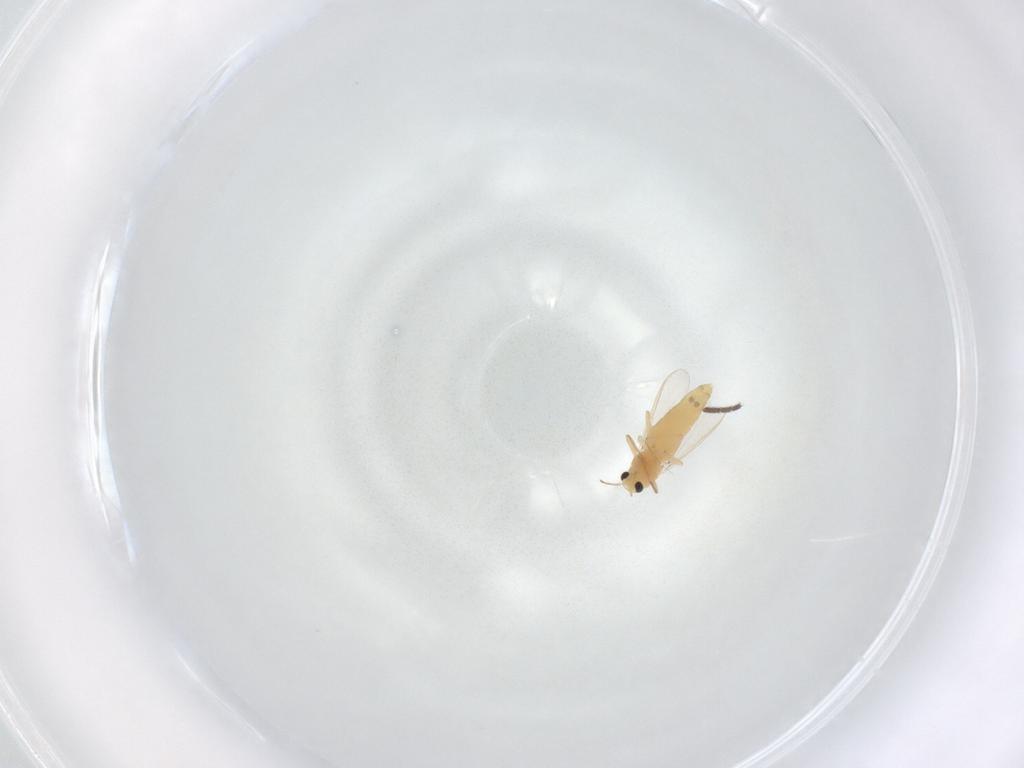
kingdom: Animalia
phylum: Arthropoda
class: Insecta
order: Diptera
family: Chironomidae
